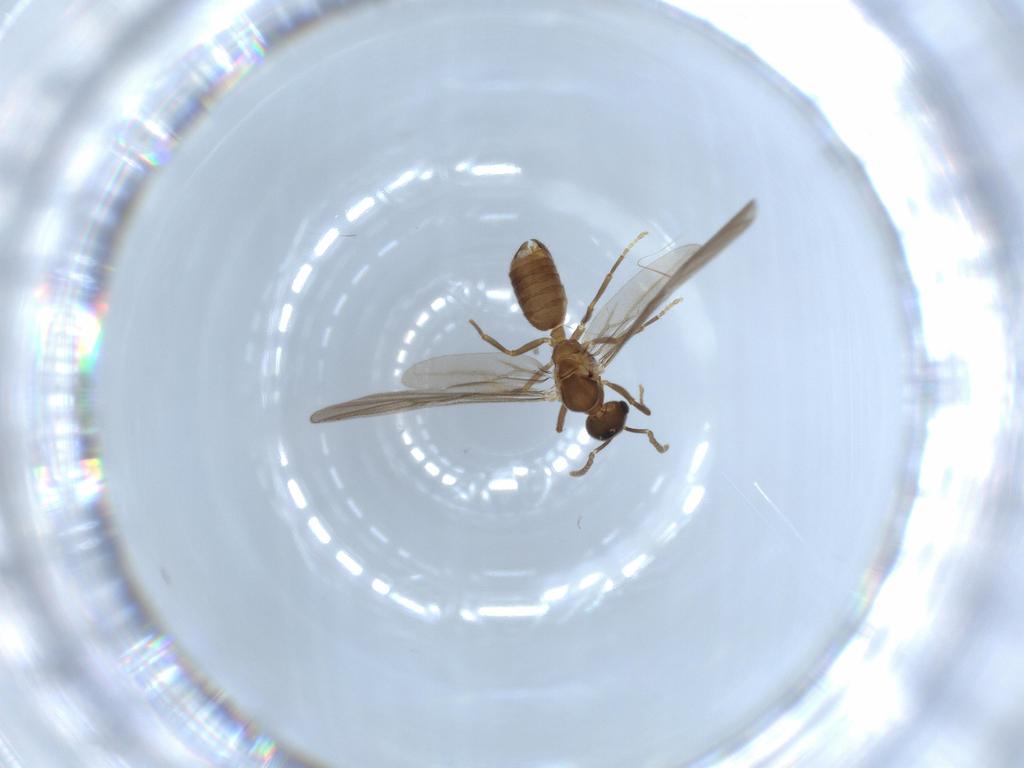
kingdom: Animalia
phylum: Arthropoda
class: Insecta
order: Hymenoptera
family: Formicidae
